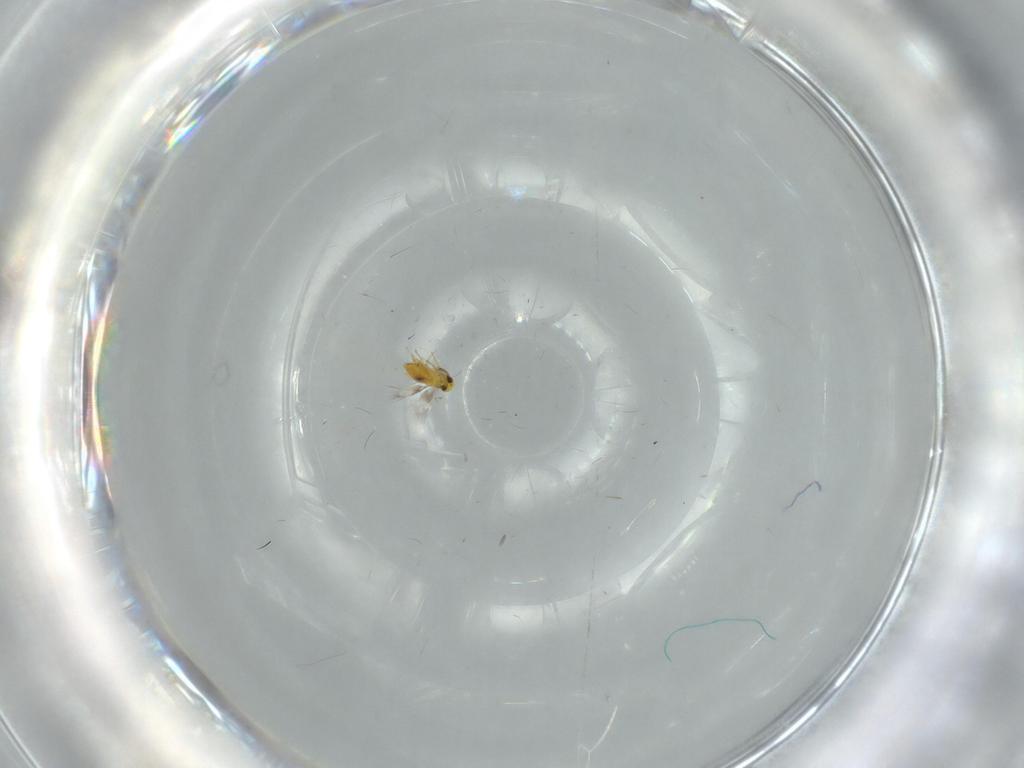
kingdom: Animalia
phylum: Arthropoda
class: Insecta
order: Hymenoptera
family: Signiphoridae
